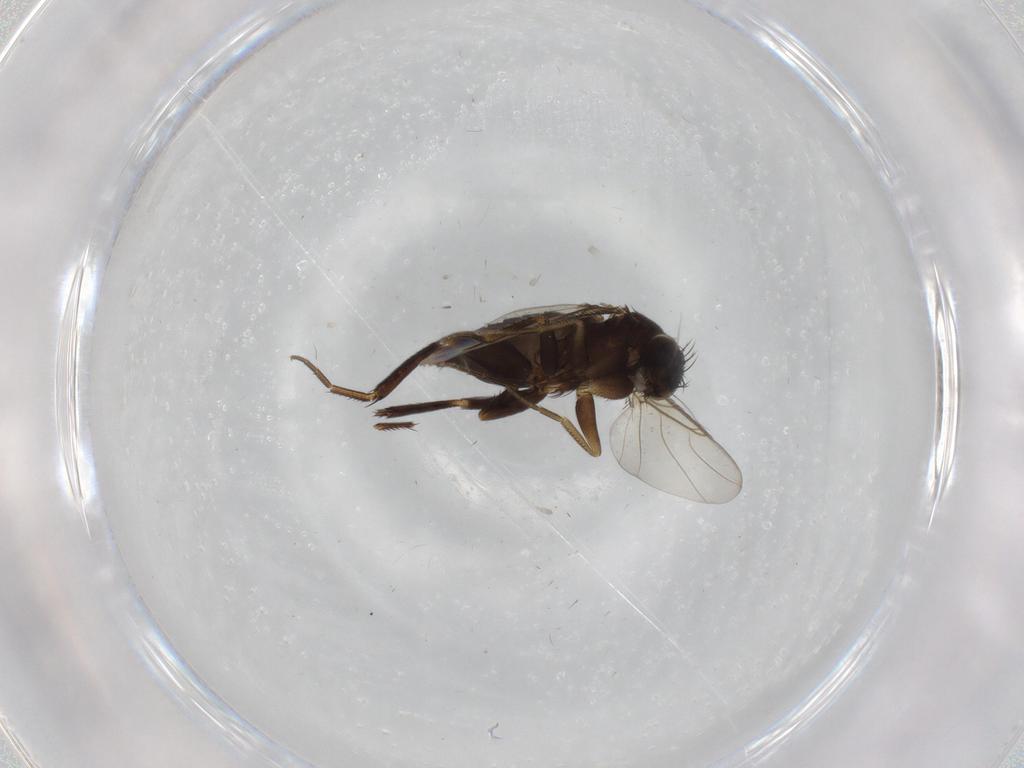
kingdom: Animalia
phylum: Arthropoda
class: Insecta
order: Diptera
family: Phoridae
